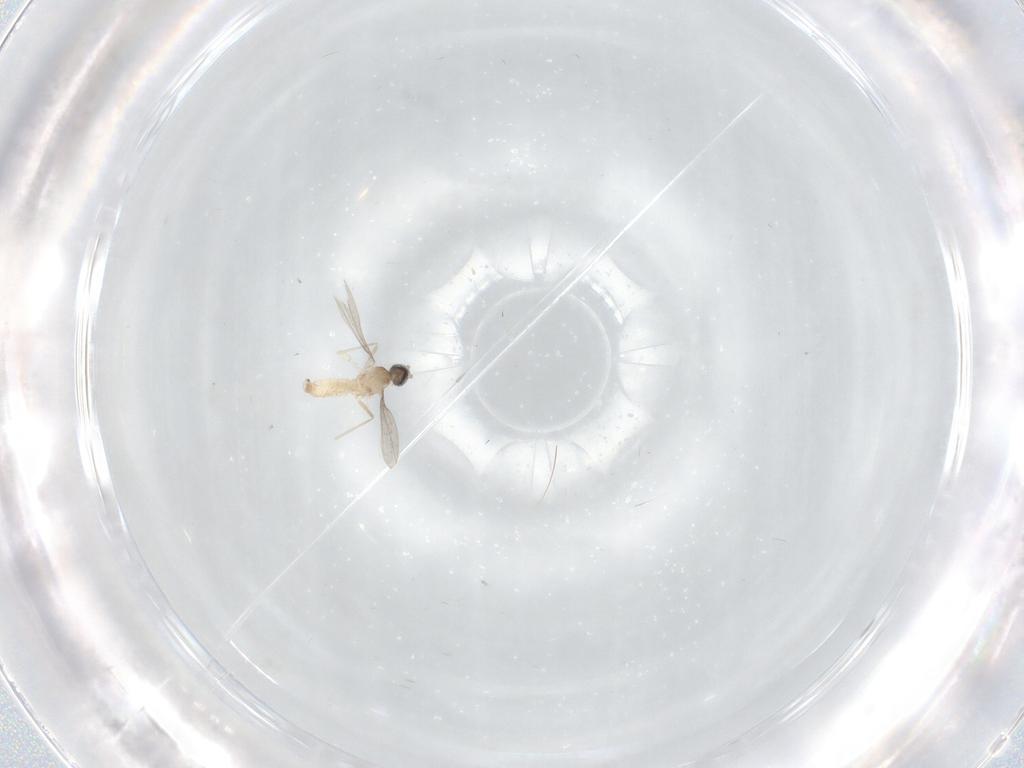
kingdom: Animalia
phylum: Arthropoda
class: Insecta
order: Diptera
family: Cecidomyiidae
